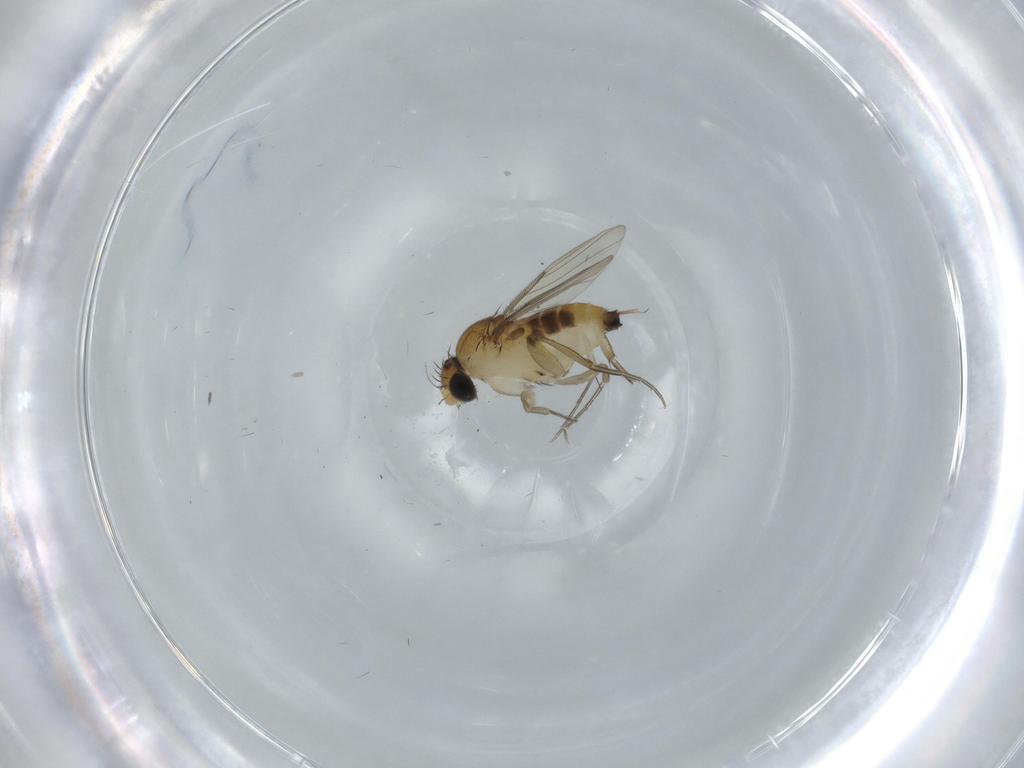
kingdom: Animalia
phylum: Arthropoda
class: Insecta
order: Diptera
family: Phoridae
